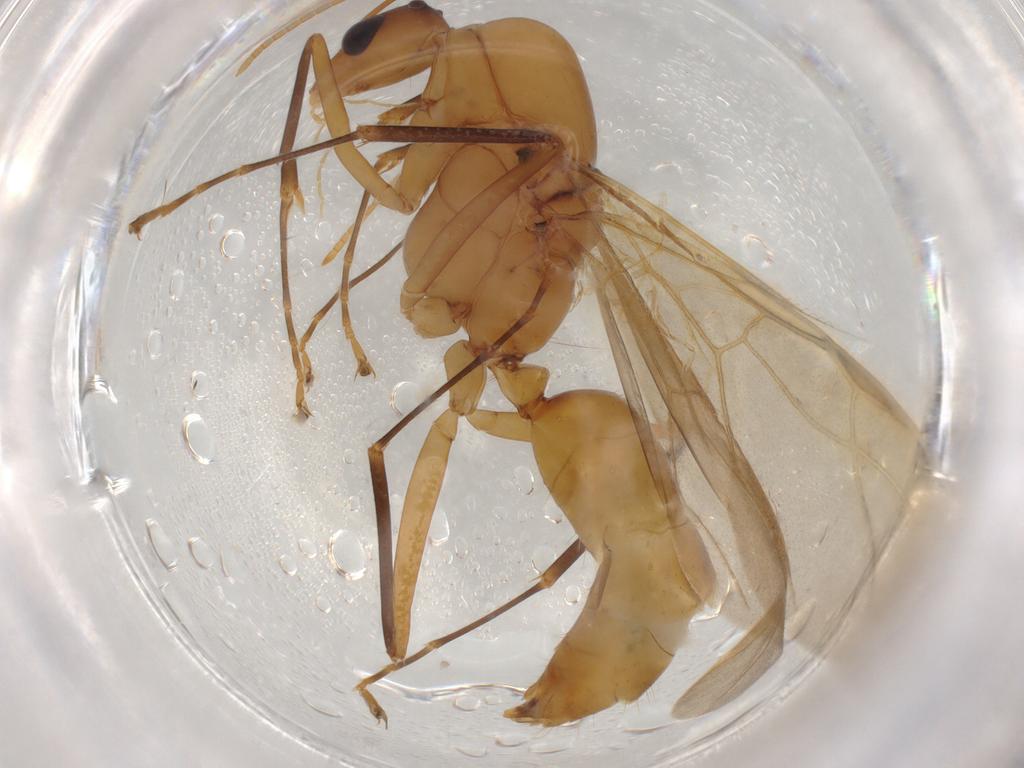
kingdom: Animalia
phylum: Arthropoda
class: Insecta
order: Hymenoptera
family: Formicidae
